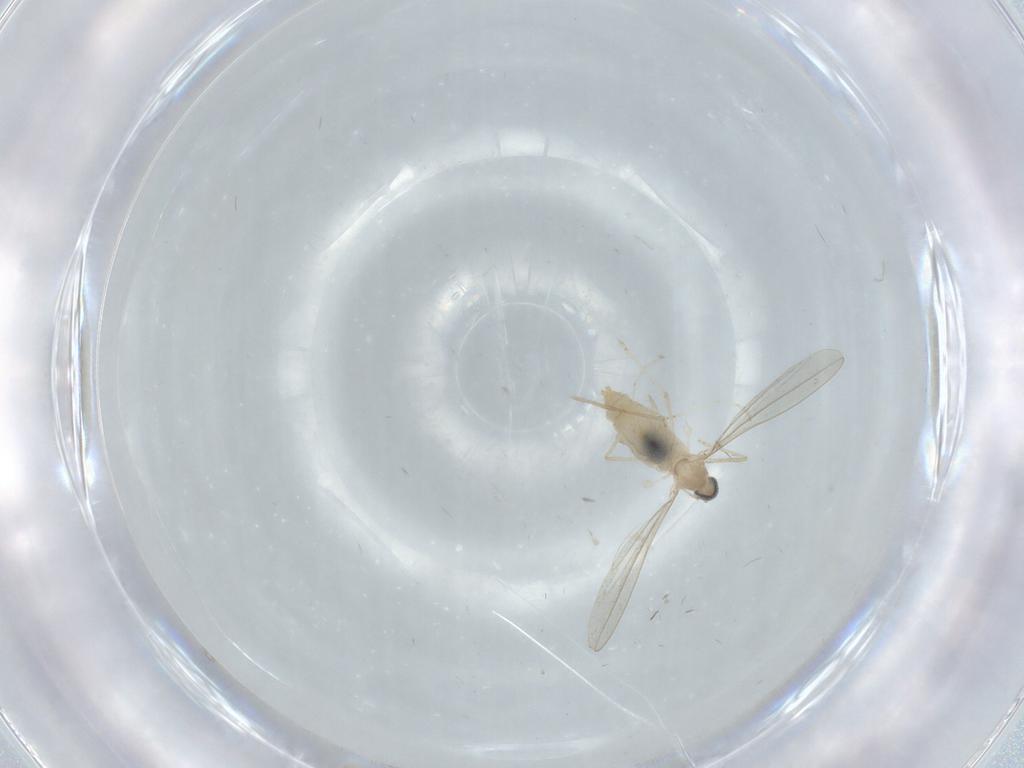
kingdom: Animalia
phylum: Arthropoda
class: Insecta
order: Diptera
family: Cecidomyiidae
